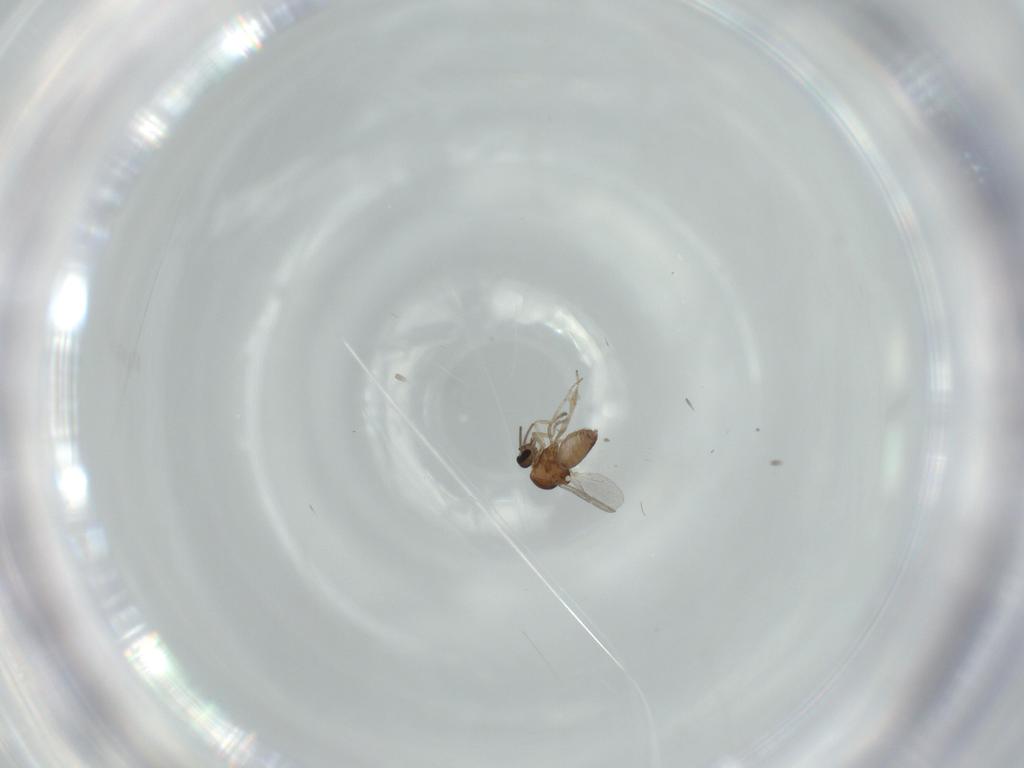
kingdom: Animalia
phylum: Arthropoda
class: Insecta
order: Diptera
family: Ceratopogonidae
